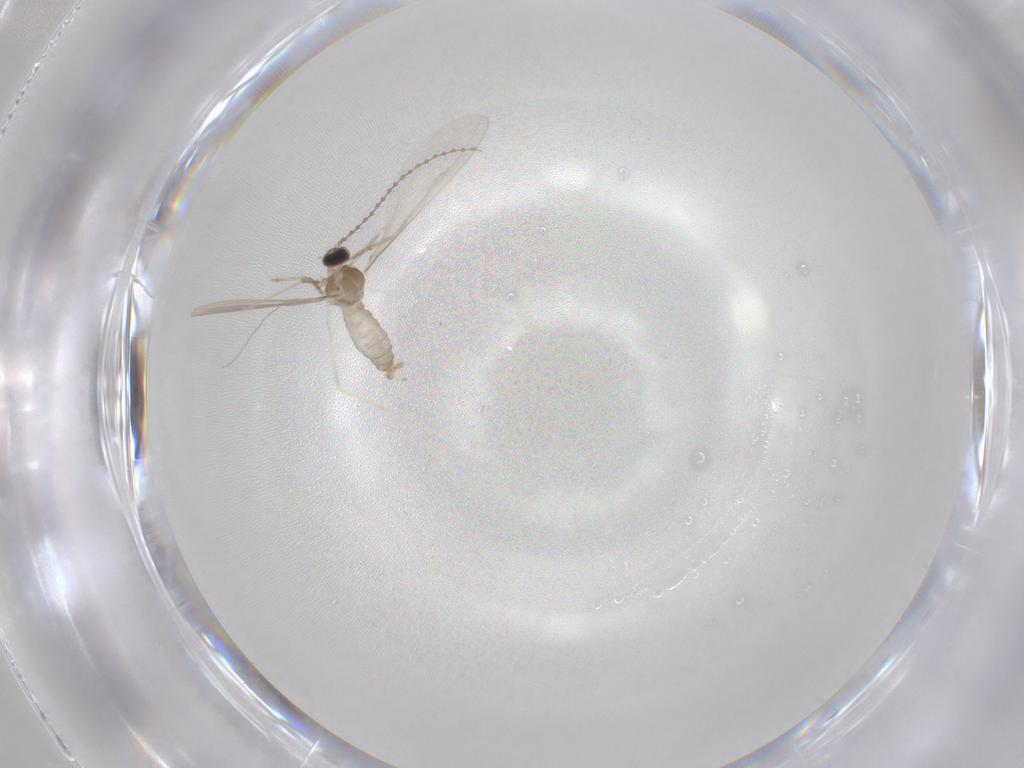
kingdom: Animalia
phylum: Arthropoda
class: Insecta
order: Diptera
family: Cecidomyiidae
